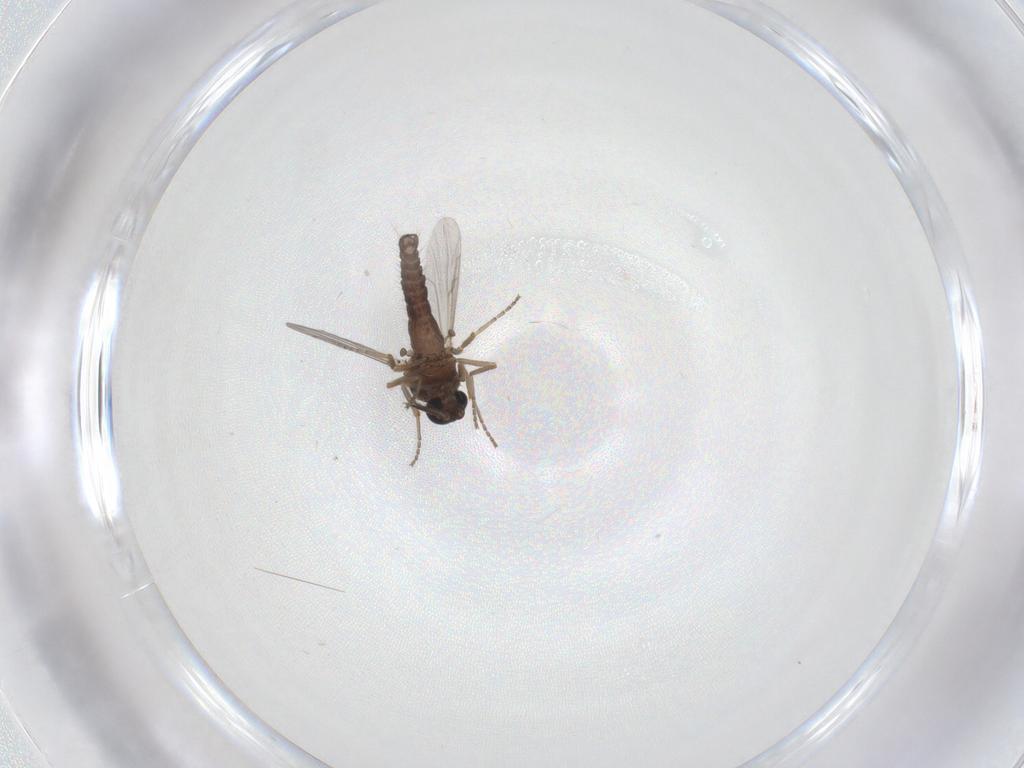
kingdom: Animalia
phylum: Arthropoda
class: Insecta
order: Diptera
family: Ceratopogonidae
